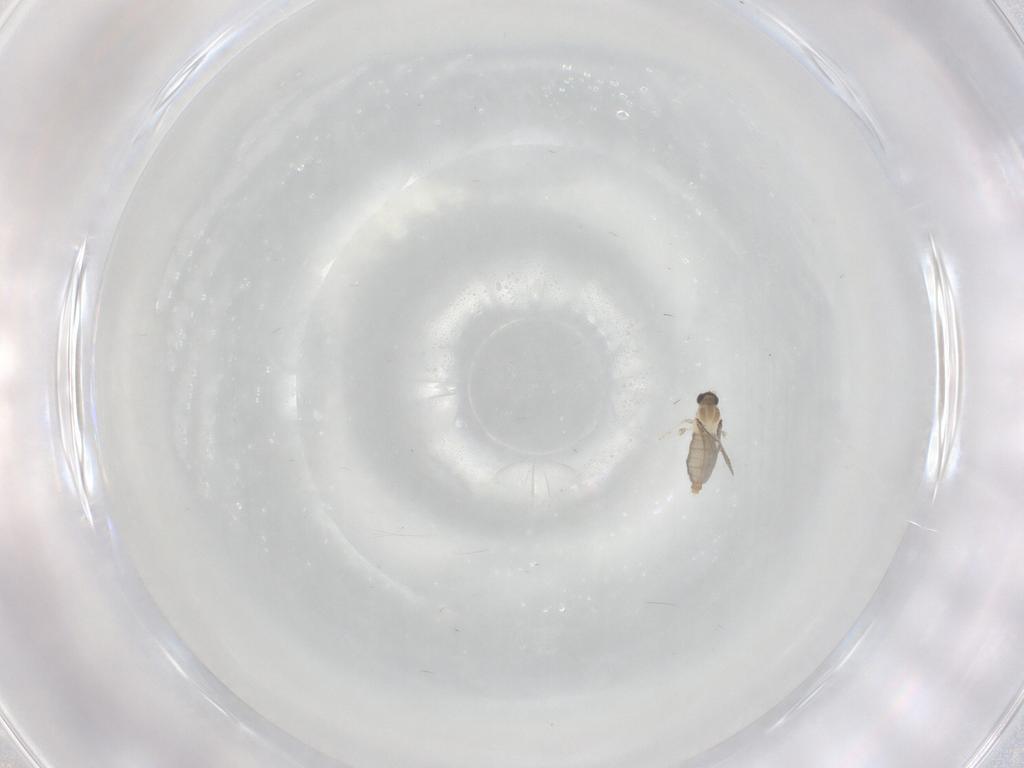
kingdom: Animalia
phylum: Arthropoda
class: Insecta
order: Diptera
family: Cecidomyiidae
